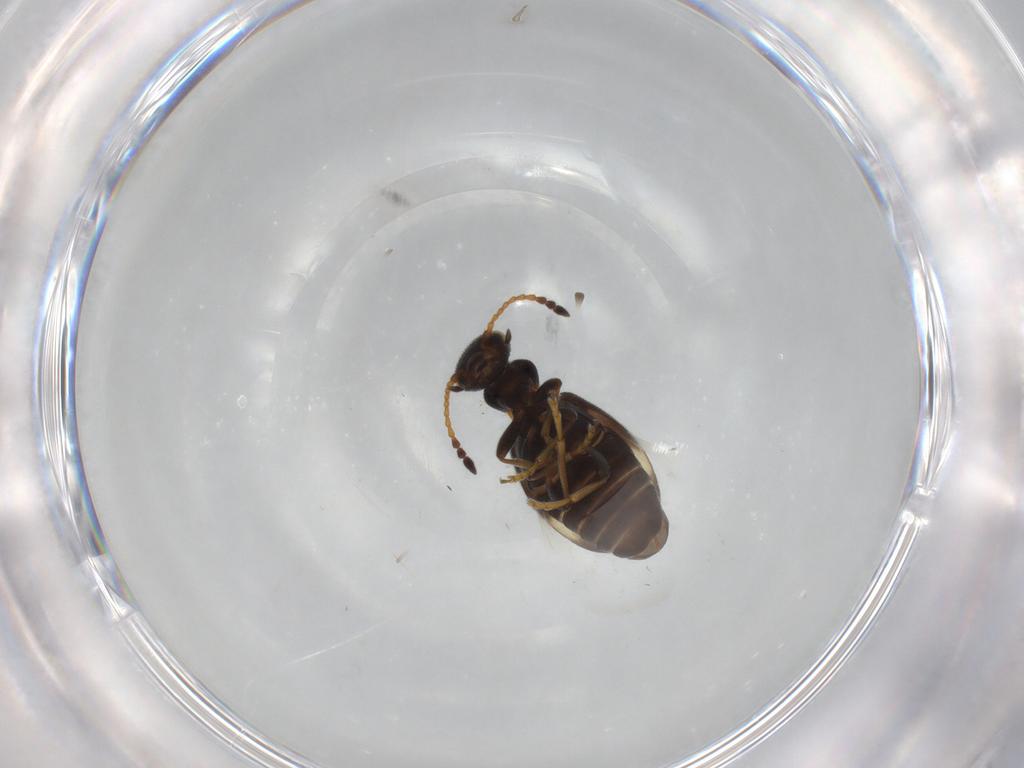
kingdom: Animalia
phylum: Arthropoda
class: Insecta
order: Coleoptera
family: Anthicidae
